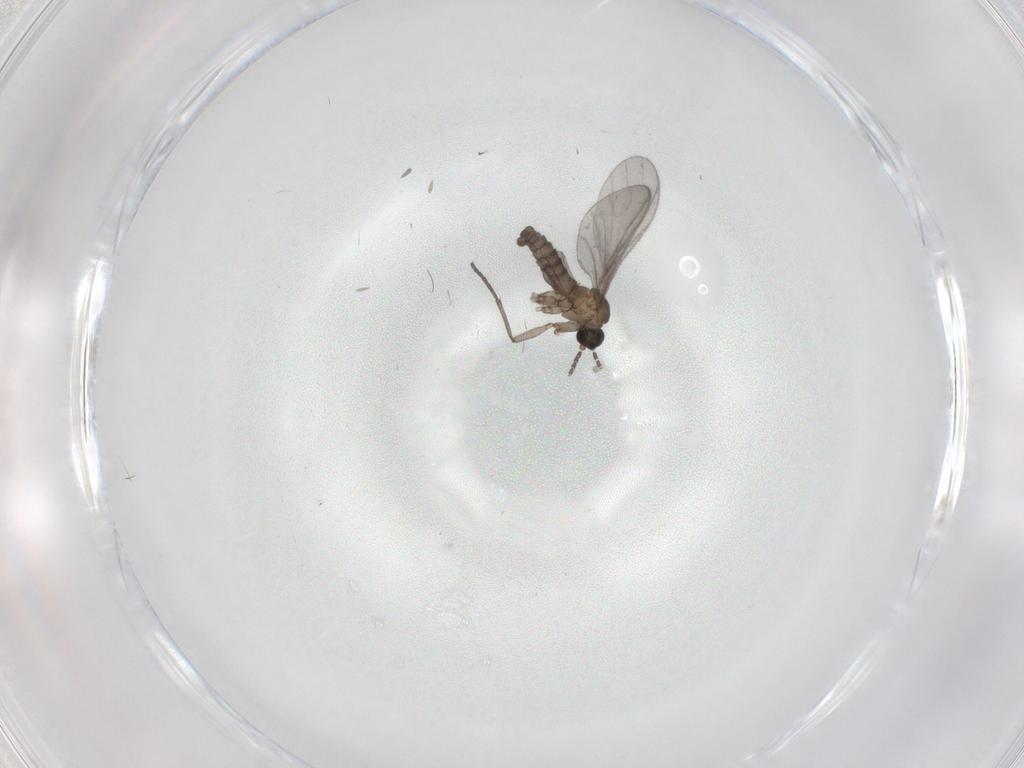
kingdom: Animalia
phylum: Arthropoda
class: Insecta
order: Diptera
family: Sciaridae
